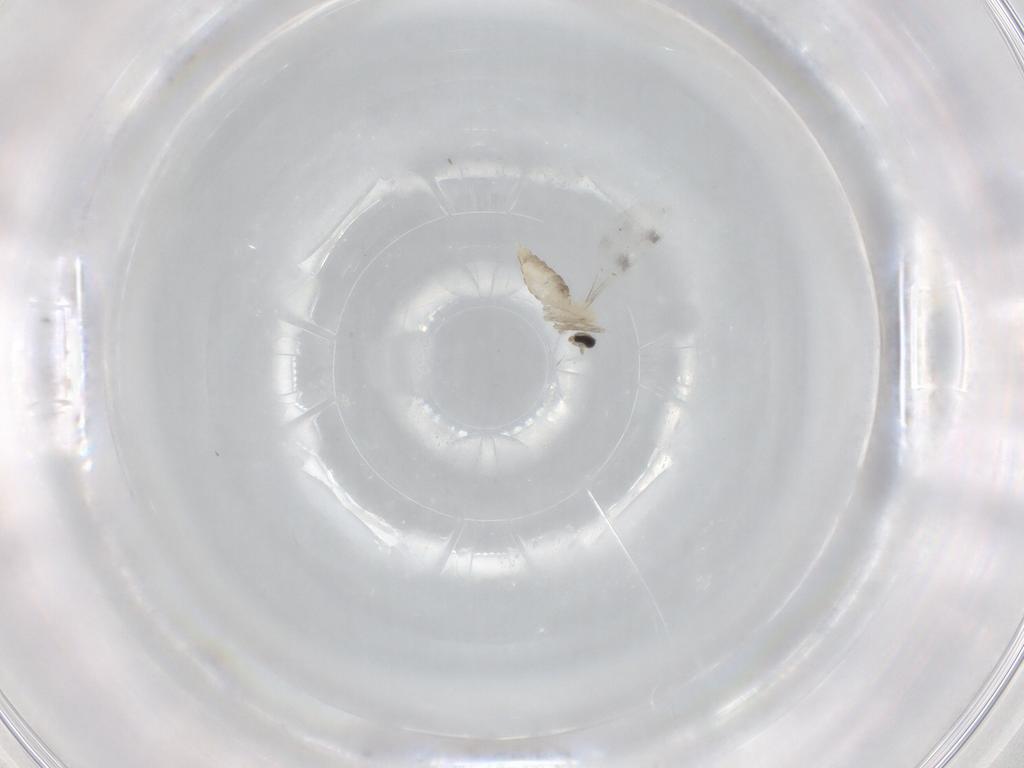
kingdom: Animalia
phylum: Arthropoda
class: Insecta
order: Diptera
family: Cecidomyiidae
